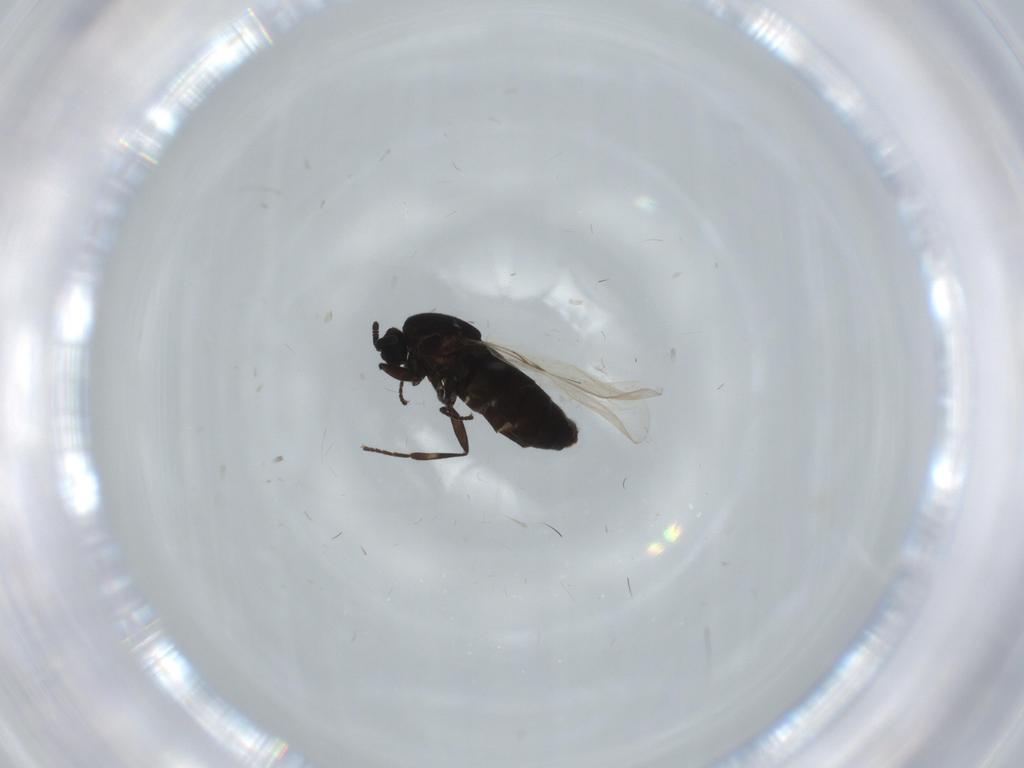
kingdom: Animalia
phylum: Arthropoda
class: Insecta
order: Diptera
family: Scatopsidae
